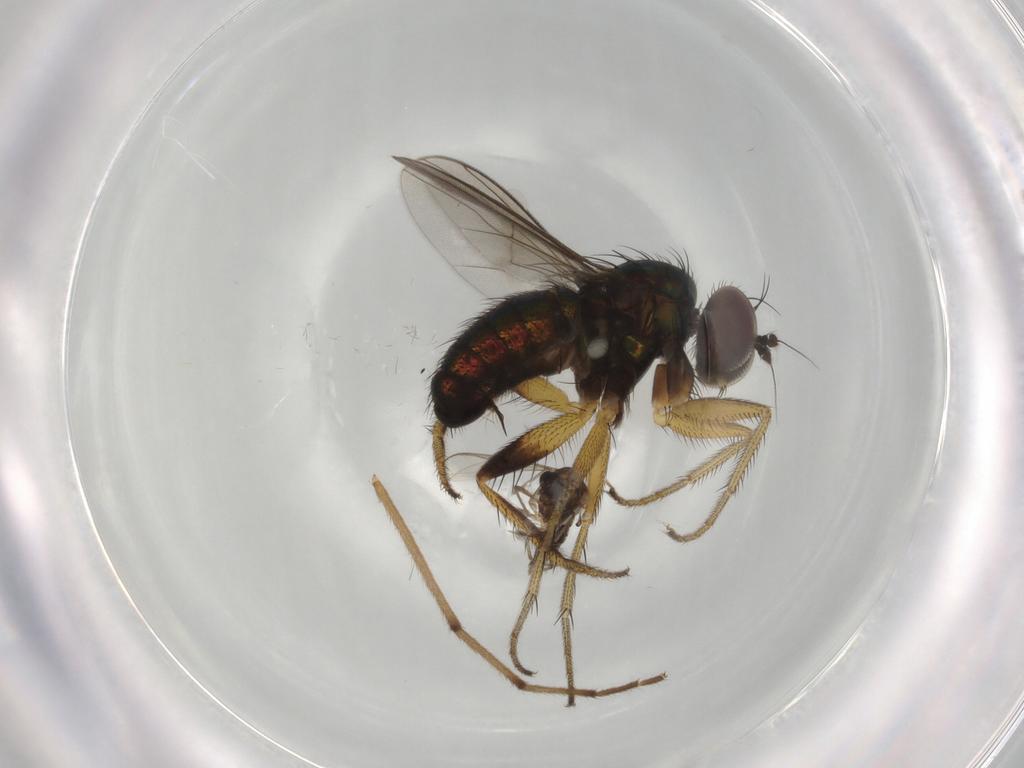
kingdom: Animalia
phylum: Arthropoda
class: Insecta
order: Diptera
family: Dolichopodidae
